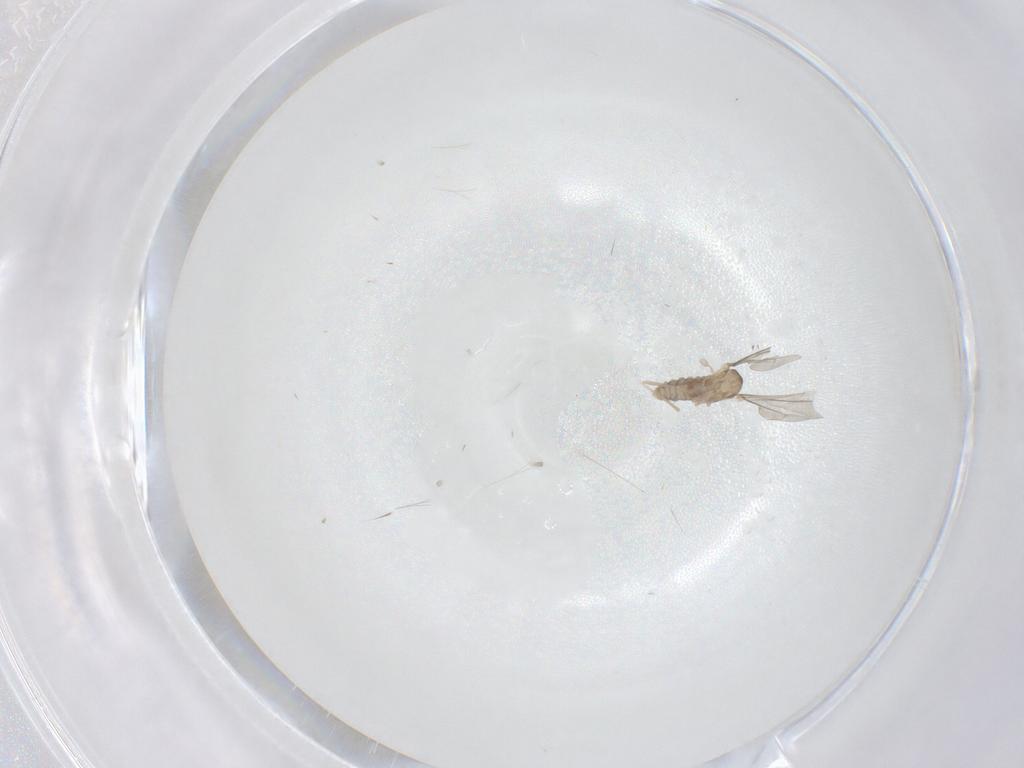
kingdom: Animalia
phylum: Arthropoda
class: Insecta
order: Diptera
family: Cecidomyiidae
